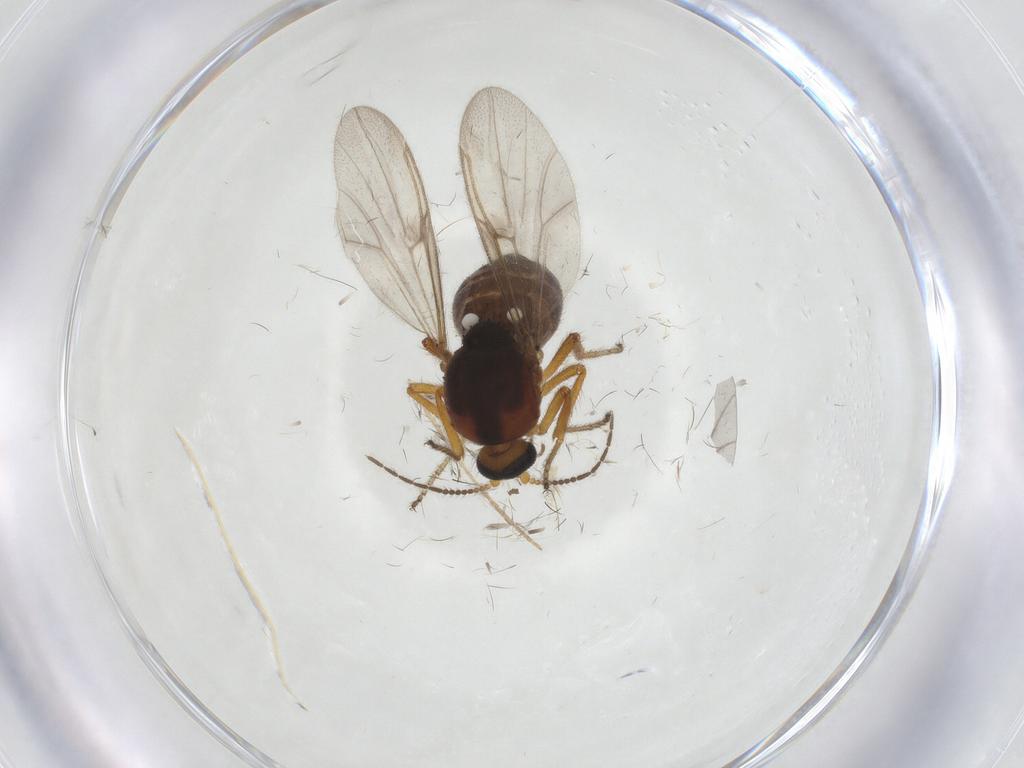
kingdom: Animalia
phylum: Arthropoda
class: Insecta
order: Diptera
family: Ceratopogonidae
